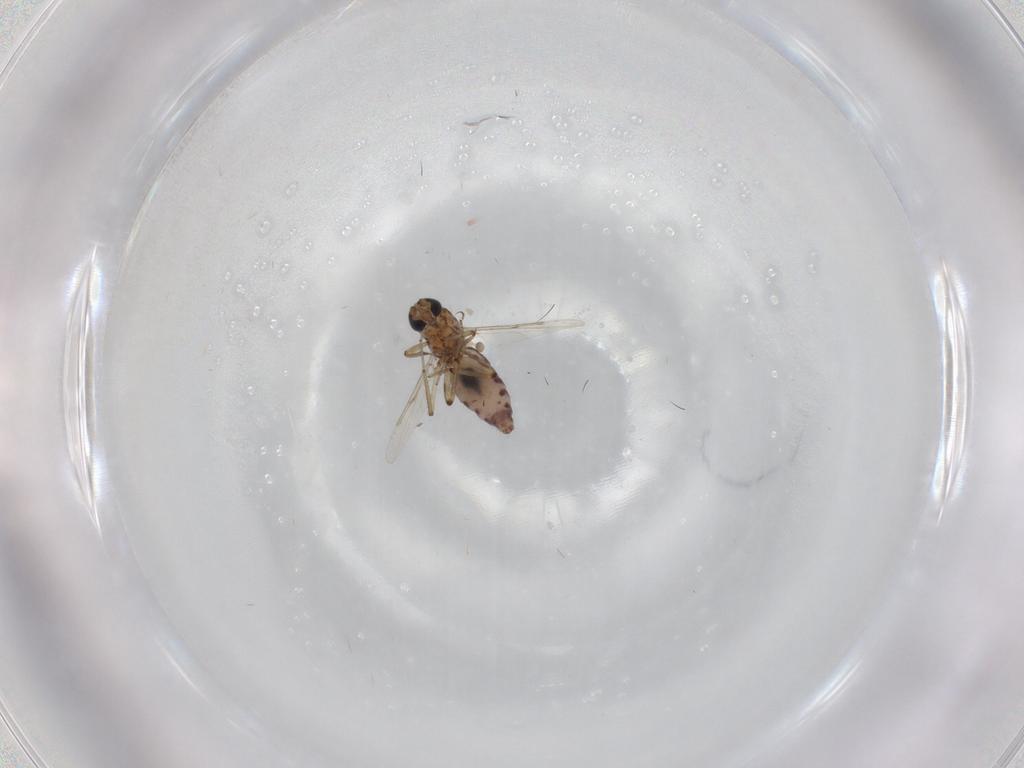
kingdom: Animalia
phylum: Arthropoda
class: Insecta
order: Diptera
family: Ceratopogonidae
